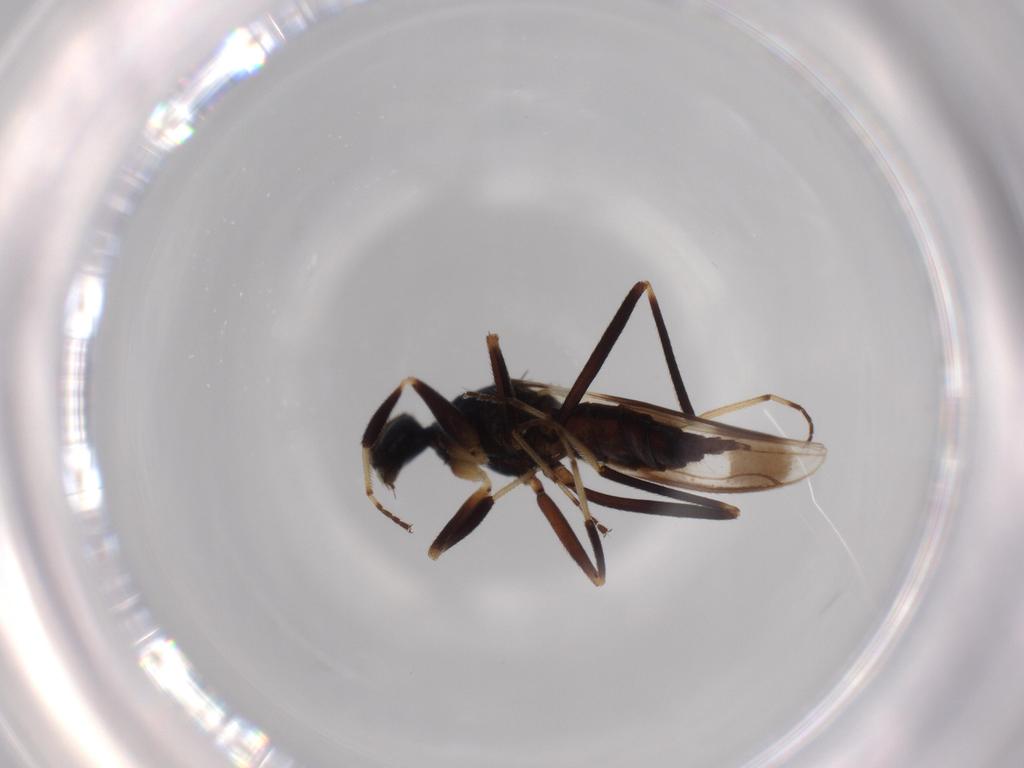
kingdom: Animalia
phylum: Arthropoda
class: Insecta
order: Diptera
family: Hybotidae
